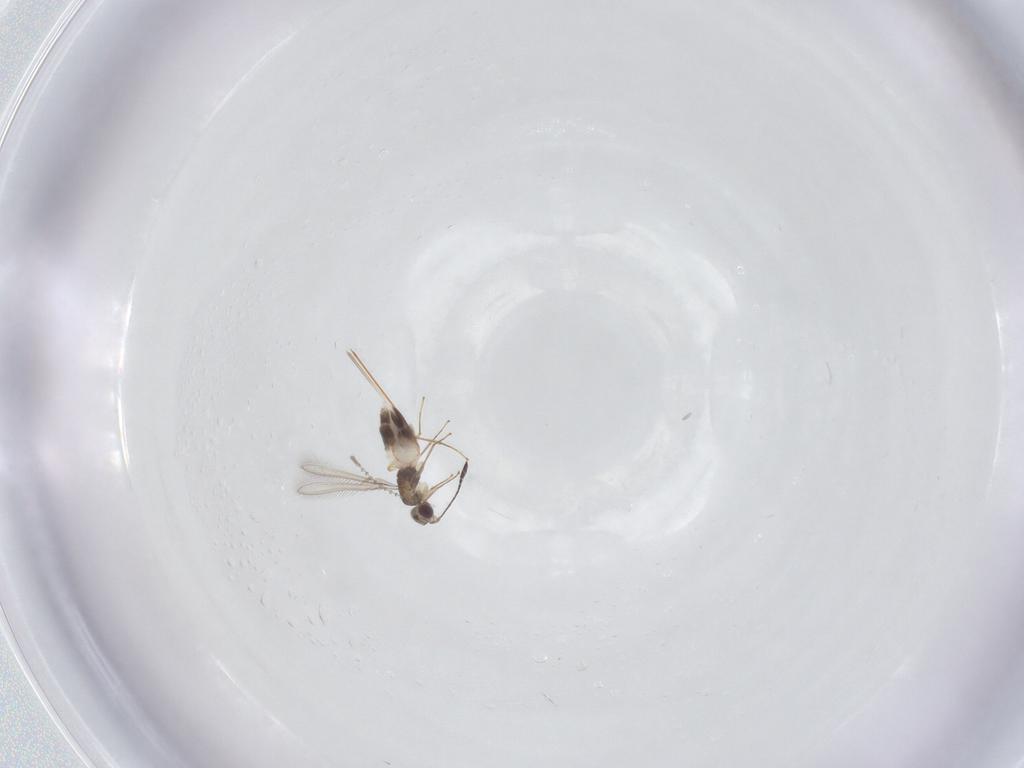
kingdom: Animalia
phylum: Arthropoda
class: Insecta
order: Hymenoptera
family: Mymaridae
